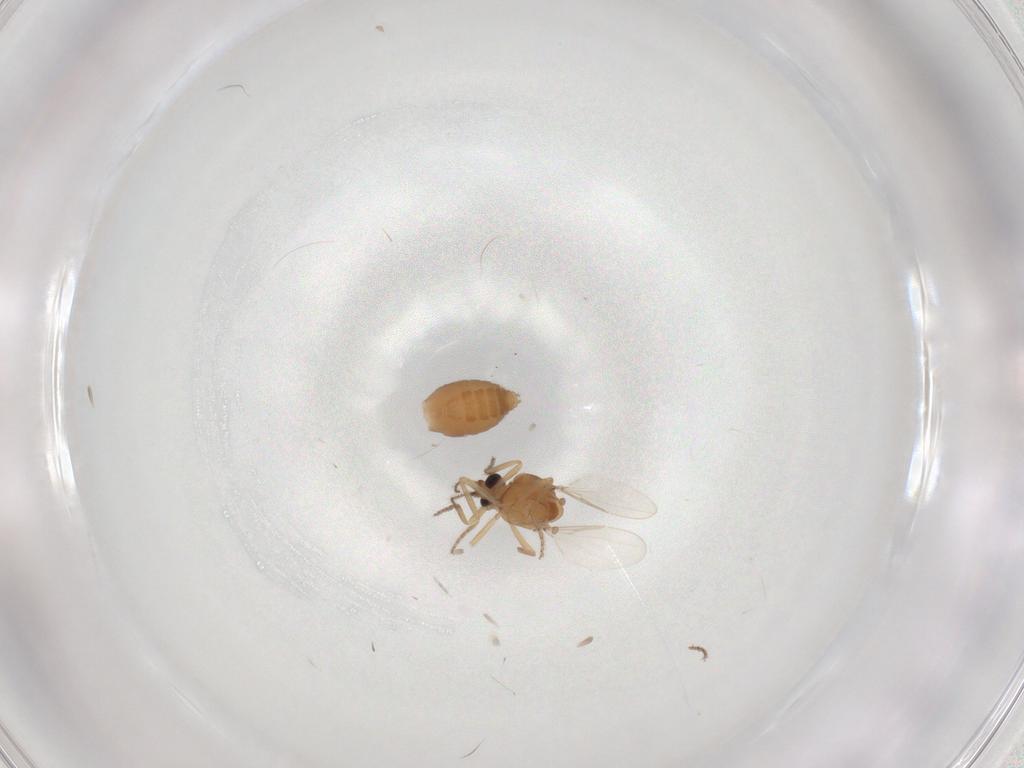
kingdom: Animalia
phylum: Arthropoda
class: Insecta
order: Diptera
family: Ceratopogonidae
